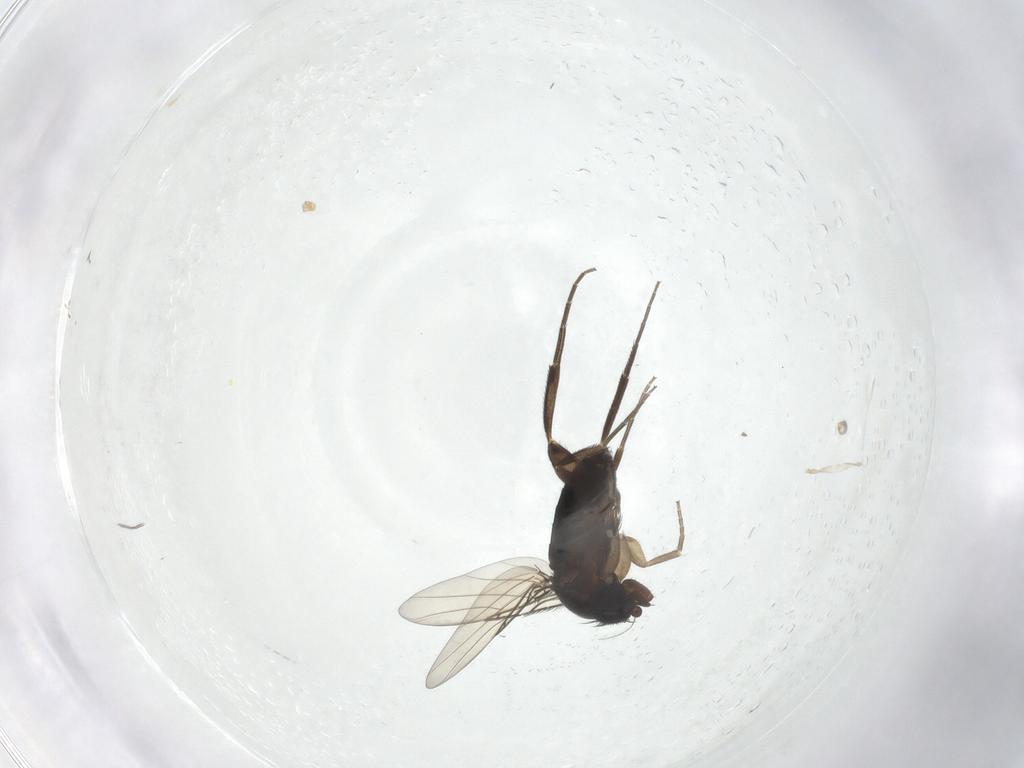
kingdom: Animalia
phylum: Arthropoda
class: Insecta
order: Diptera
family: Phoridae
